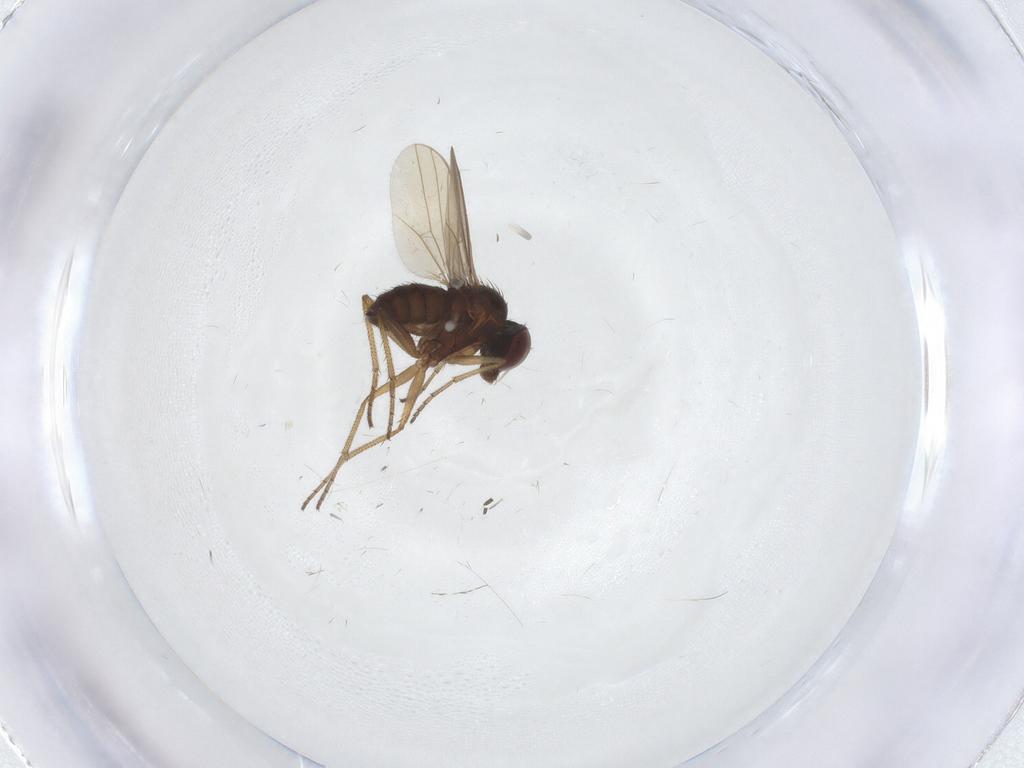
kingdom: Animalia
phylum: Arthropoda
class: Insecta
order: Diptera
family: Dolichopodidae
